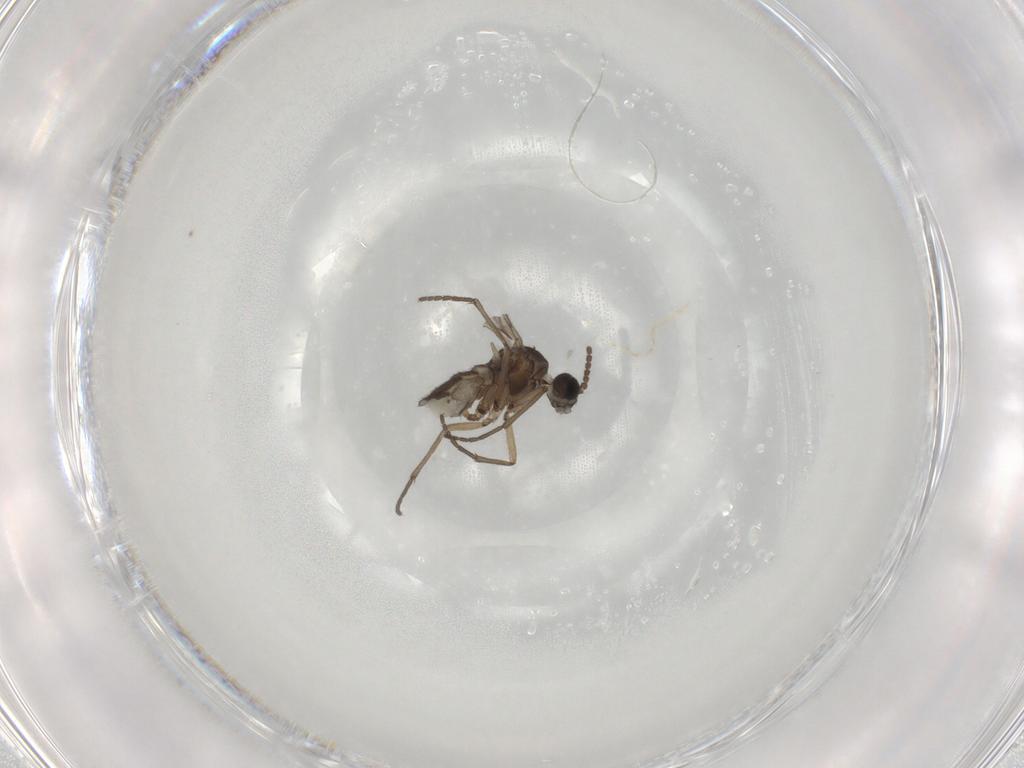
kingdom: Animalia
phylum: Arthropoda
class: Insecta
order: Diptera
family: Sciaridae
